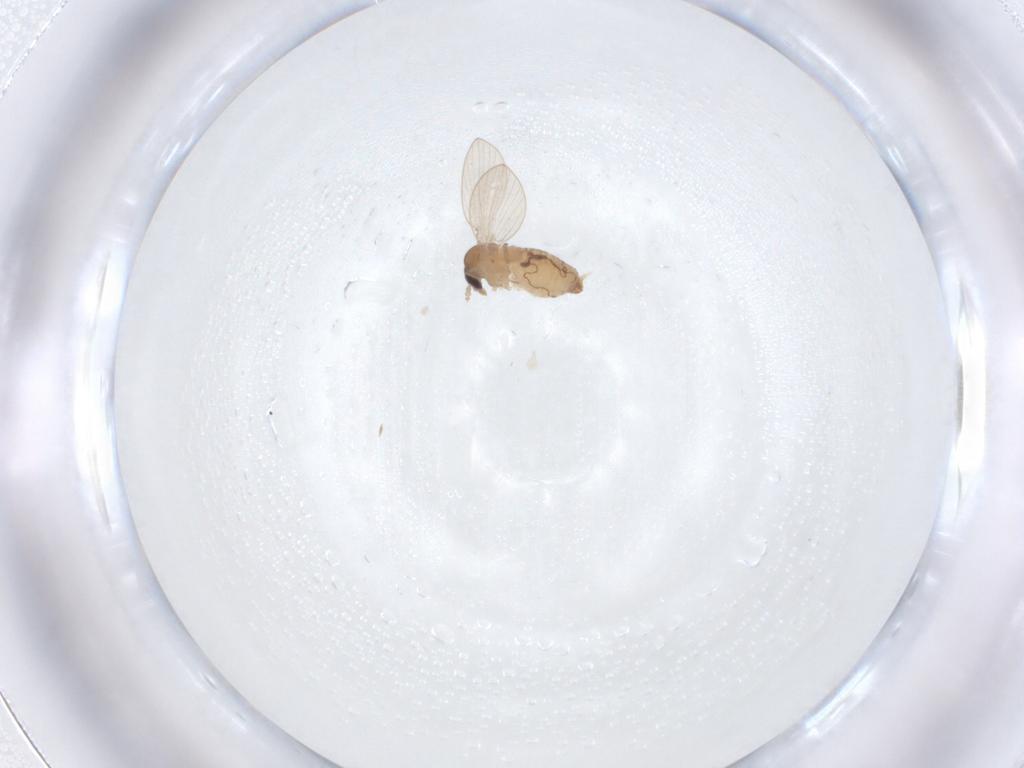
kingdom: Animalia
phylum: Arthropoda
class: Insecta
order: Diptera
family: Psychodidae
